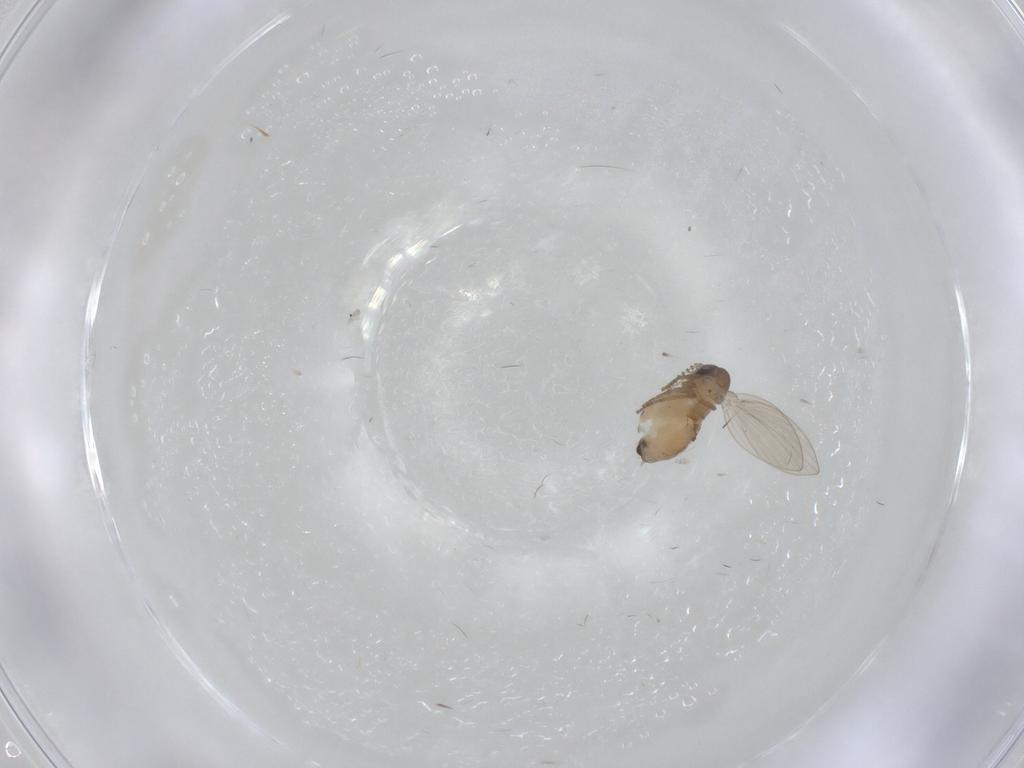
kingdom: Animalia
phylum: Arthropoda
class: Insecta
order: Diptera
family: Psychodidae
